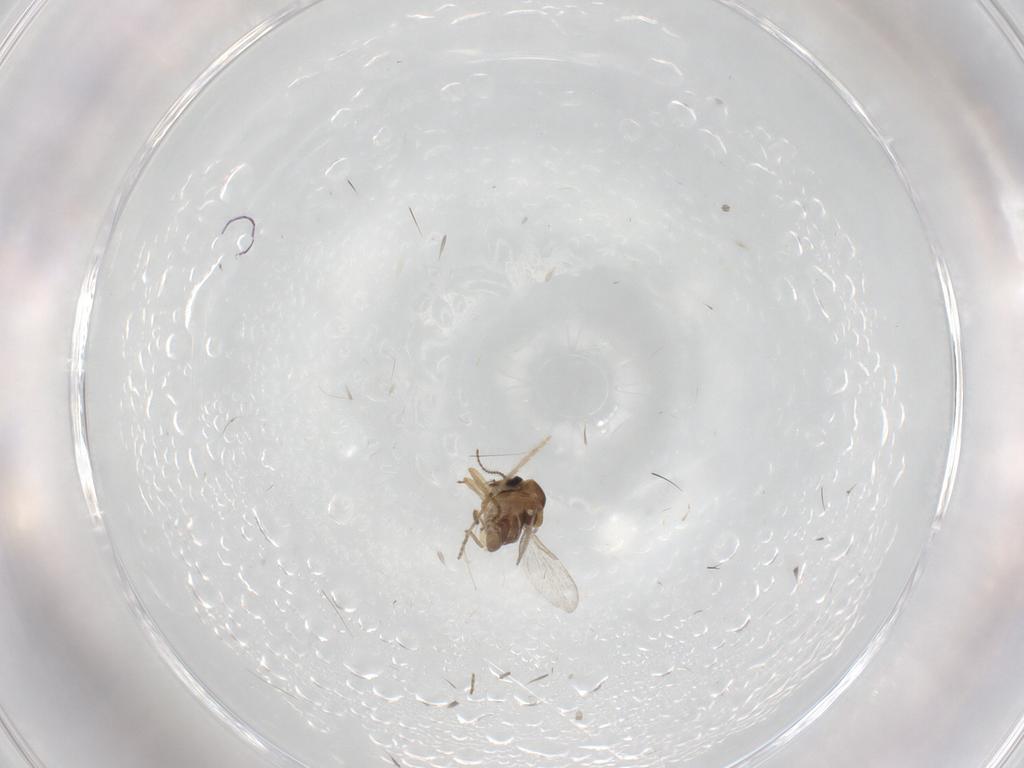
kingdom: Animalia
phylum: Arthropoda
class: Insecta
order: Diptera
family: Ceratopogonidae
